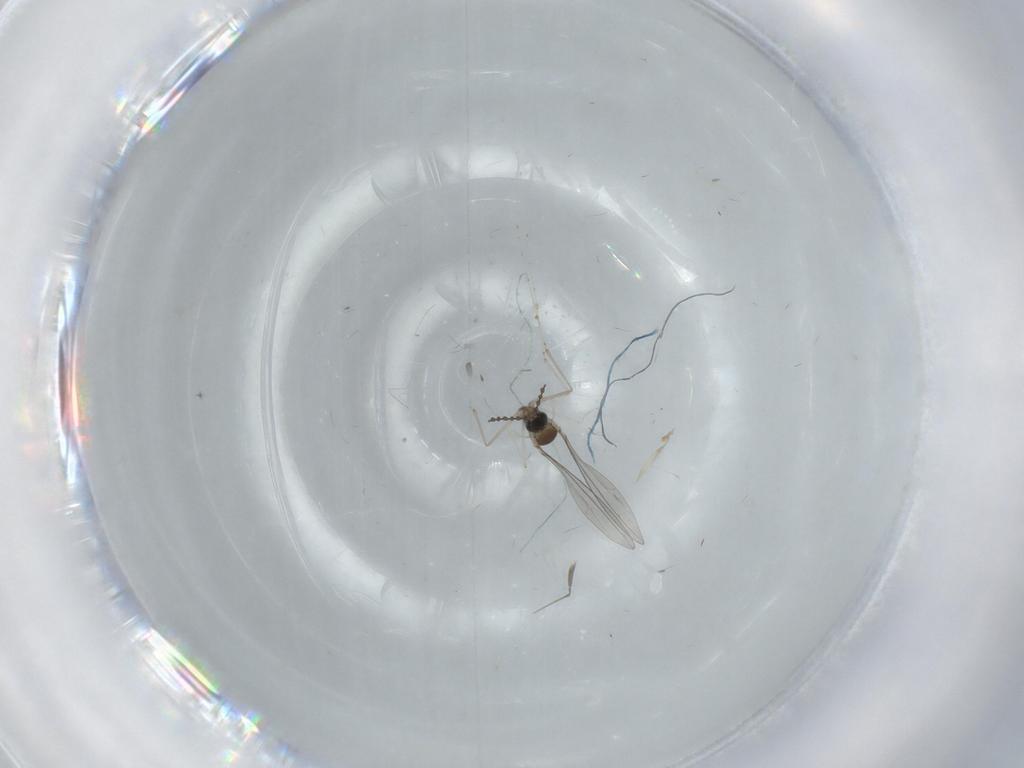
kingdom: Animalia
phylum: Arthropoda
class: Insecta
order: Diptera
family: Cecidomyiidae
